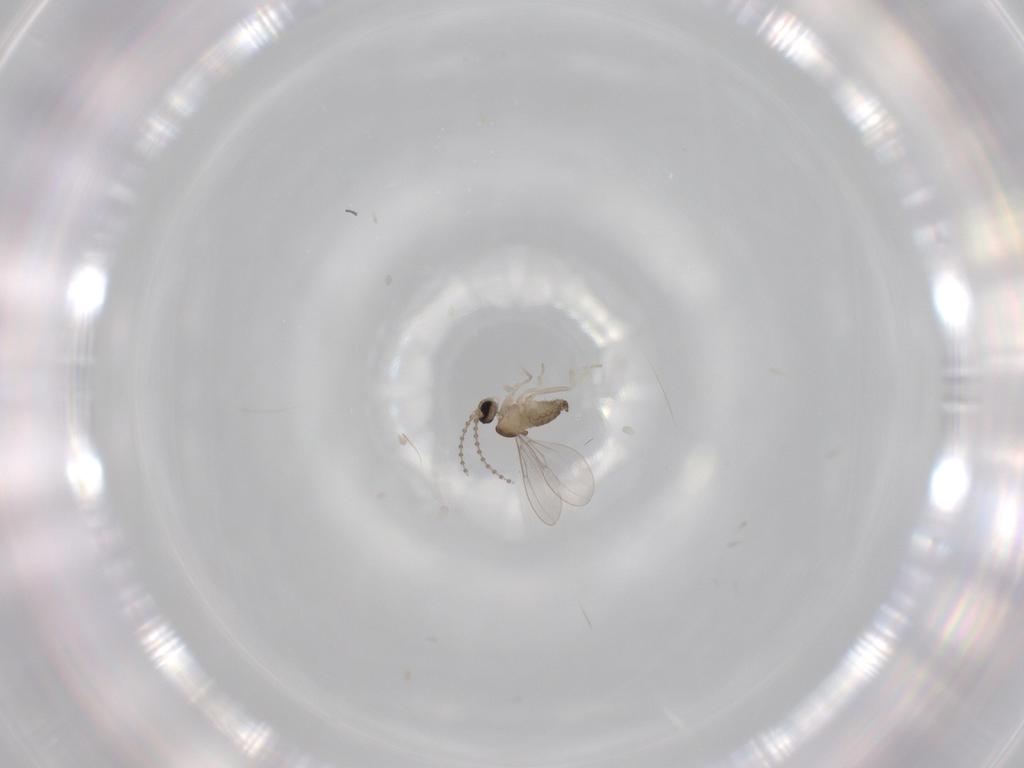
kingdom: Animalia
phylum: Arthropoda
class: Insecta
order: Diptera
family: Cecidomyiidae
